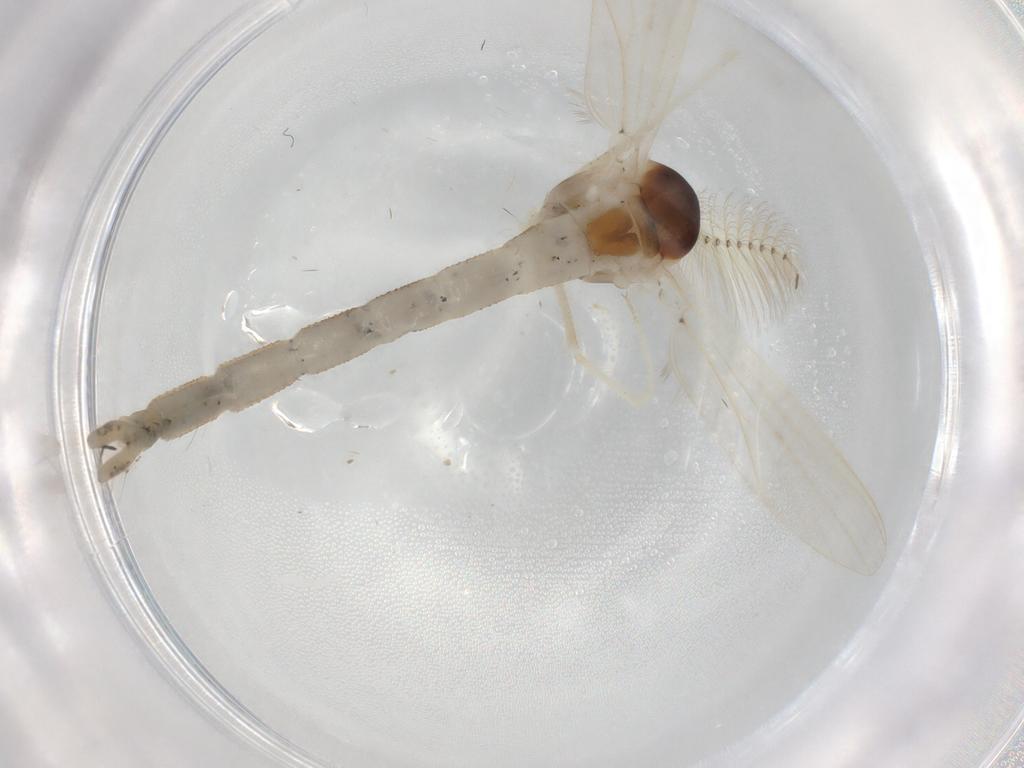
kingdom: Animalia
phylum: Arthropoda
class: Insecta
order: Diptera
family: Chaoboridae
